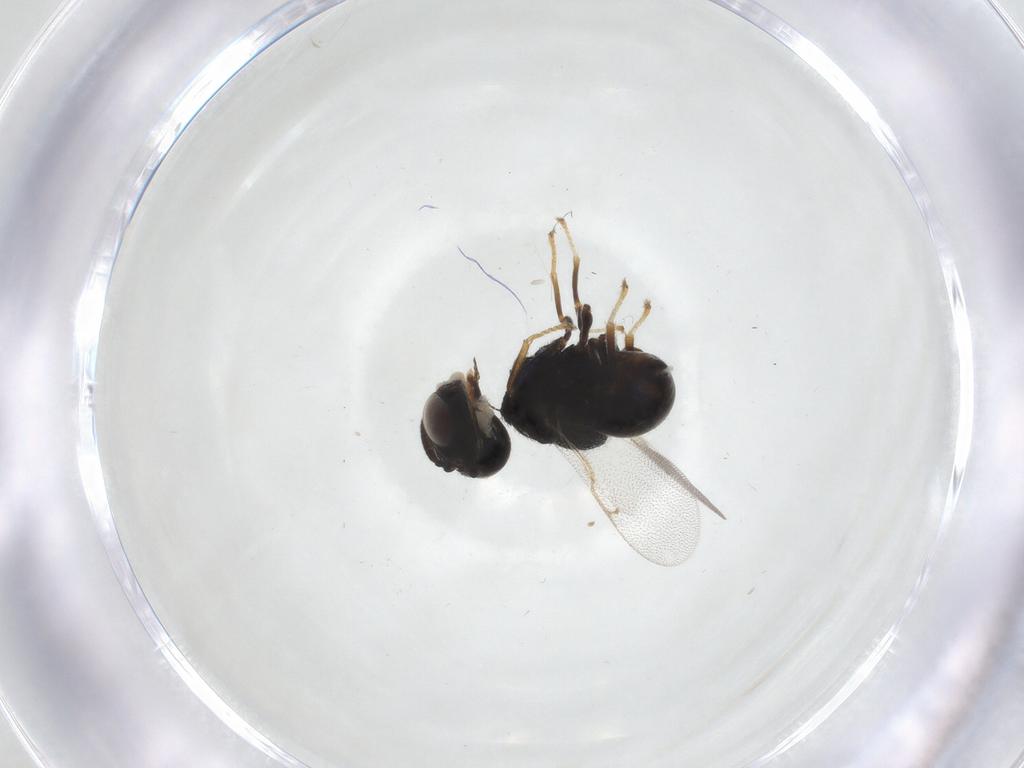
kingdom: Animalia
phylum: Arthropoda
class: Insecta
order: Hymenoptera
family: Perilampidae
